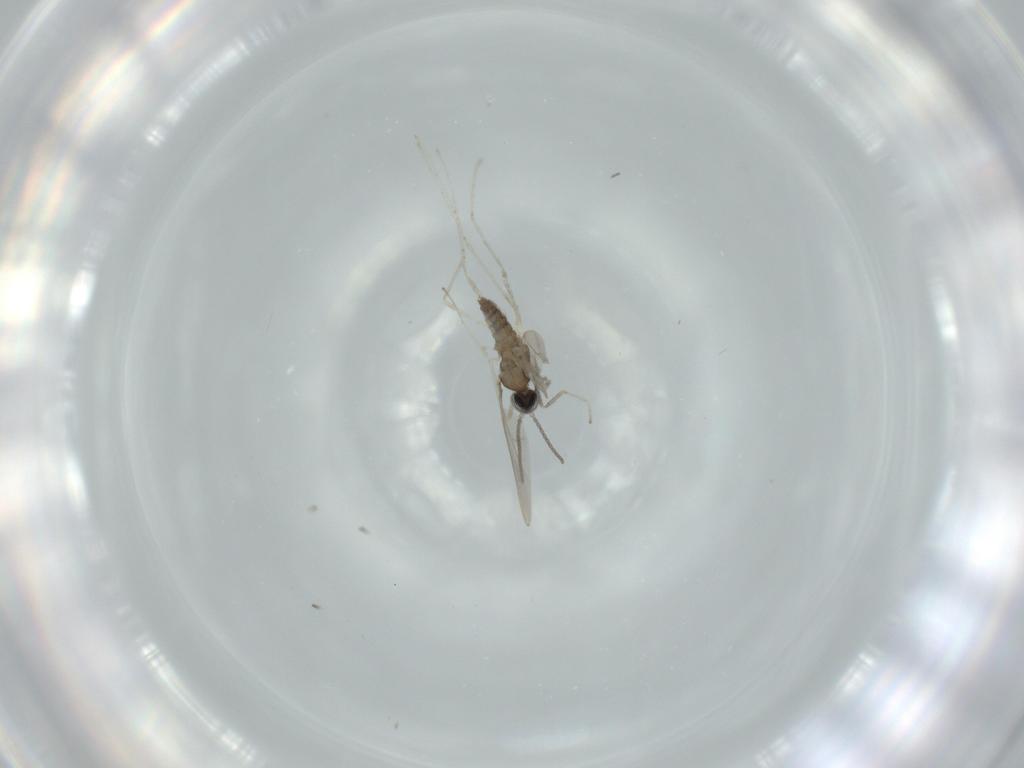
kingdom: Animalia
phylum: Arthropoda
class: Insecta
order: Diptera
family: Cecidomyiidae
